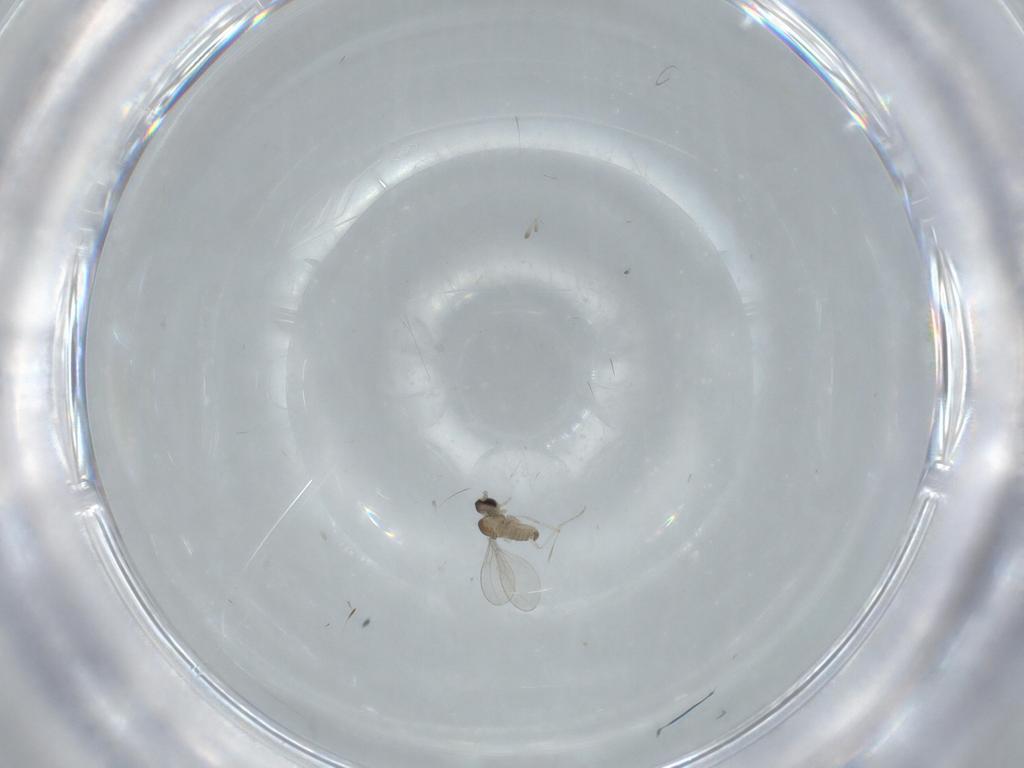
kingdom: Animalia
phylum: Arthropoda
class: Insecta
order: Diptera
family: Cecidomyiidae
